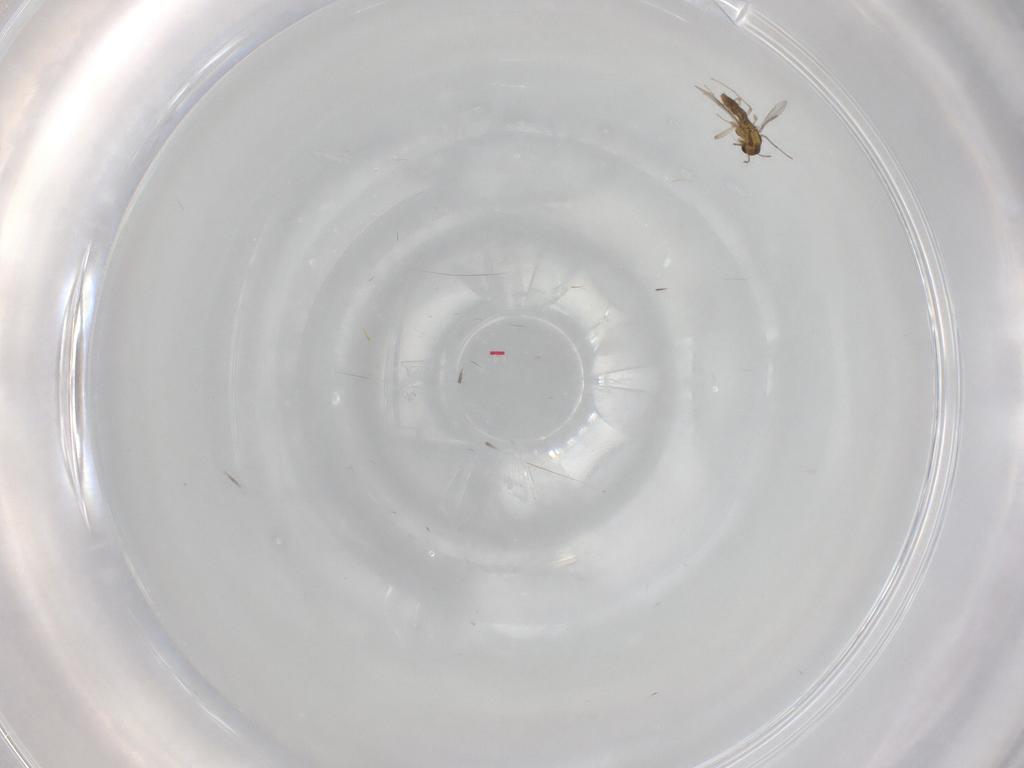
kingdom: Animalia
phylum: Arthropoda
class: Insecta
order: Diptera
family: Chironomidae
